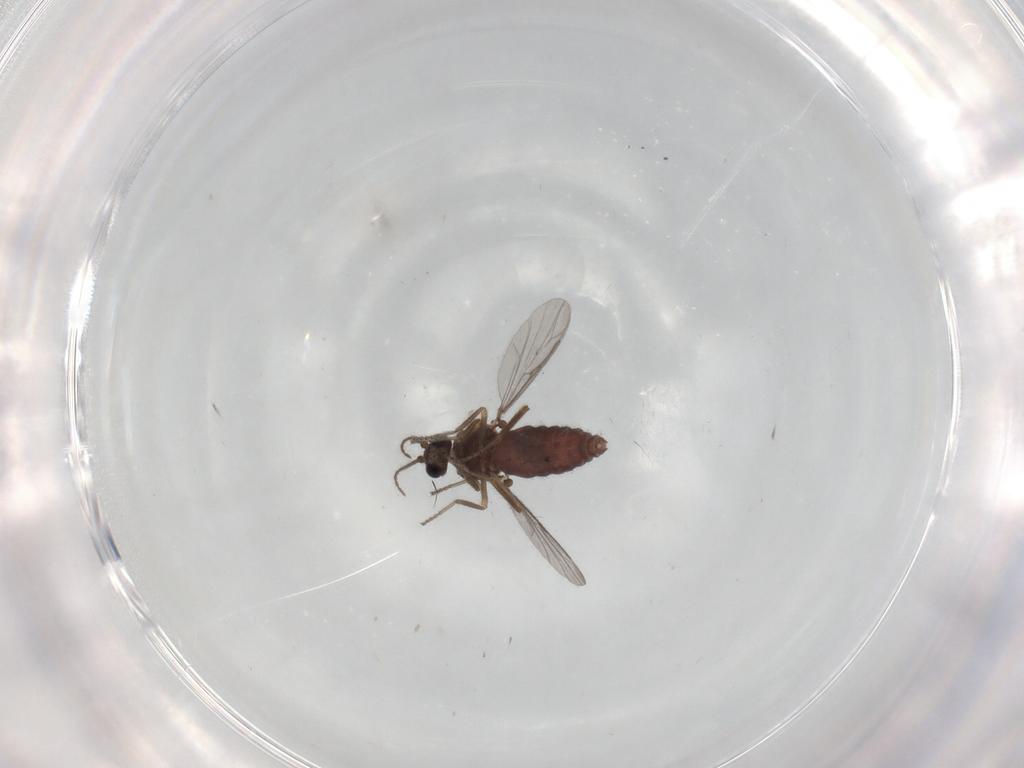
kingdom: Animalia
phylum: Arthropoda
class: Insecta
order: Diptera
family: Ceratopogonidae
